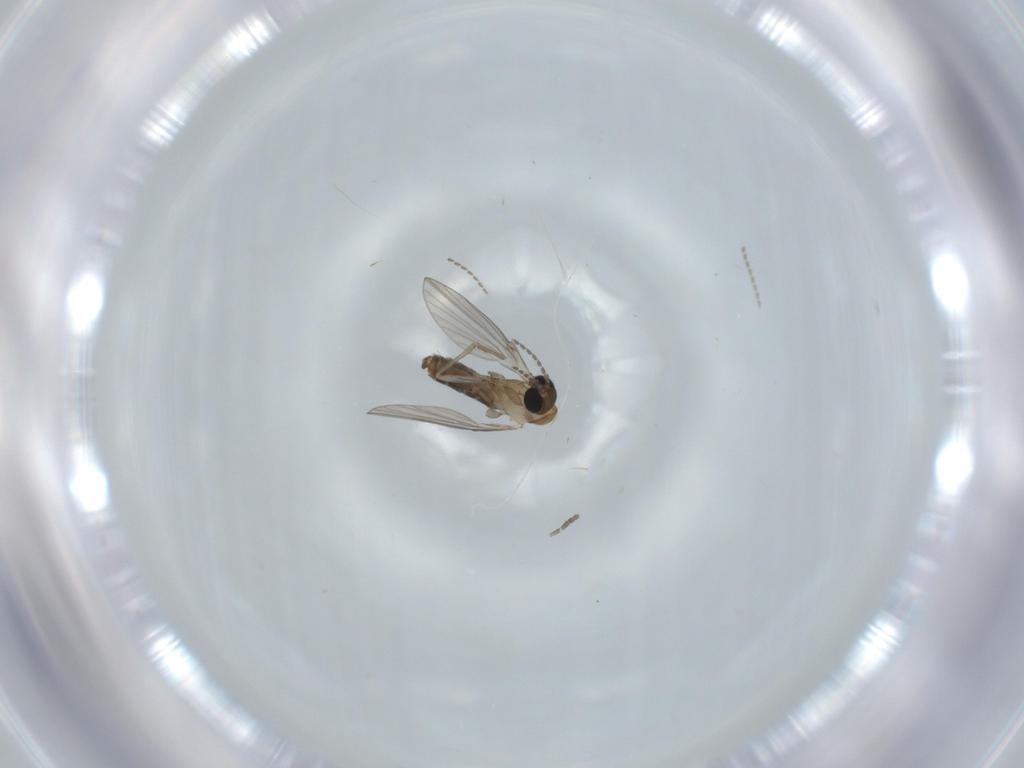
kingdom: Animalia
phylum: Arthropoda
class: Insecta
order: Diptera
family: Psychodidae
